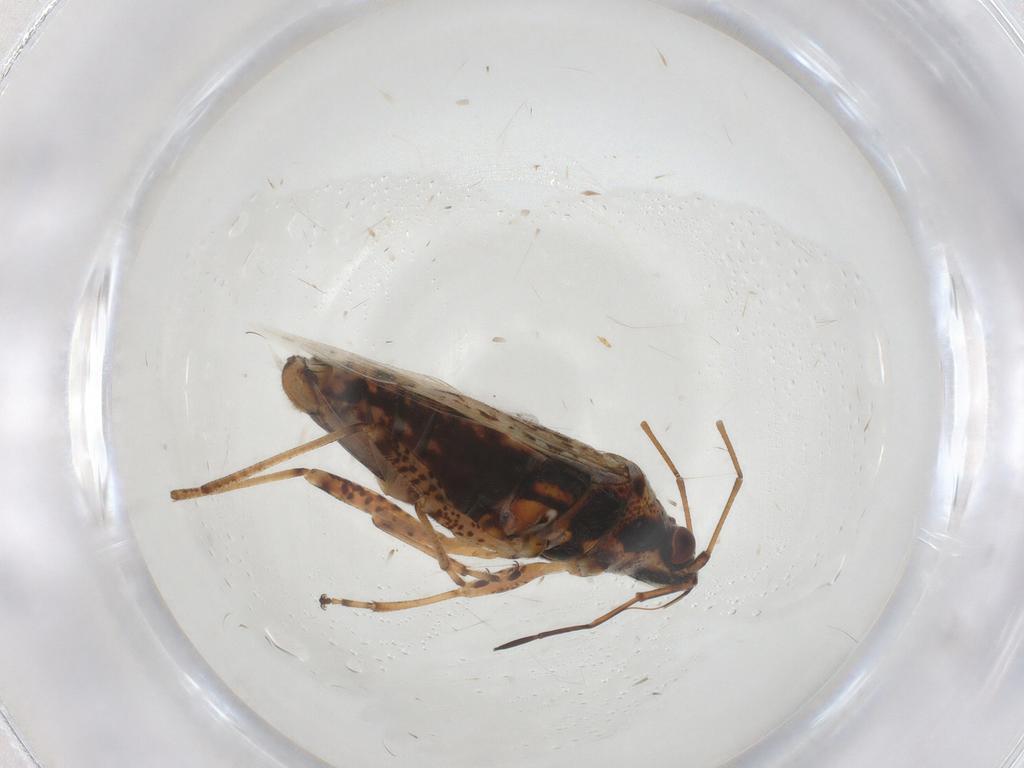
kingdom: Animalia
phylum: Arthropoda
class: Insecta
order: Hemiptera
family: Lygaeidae
